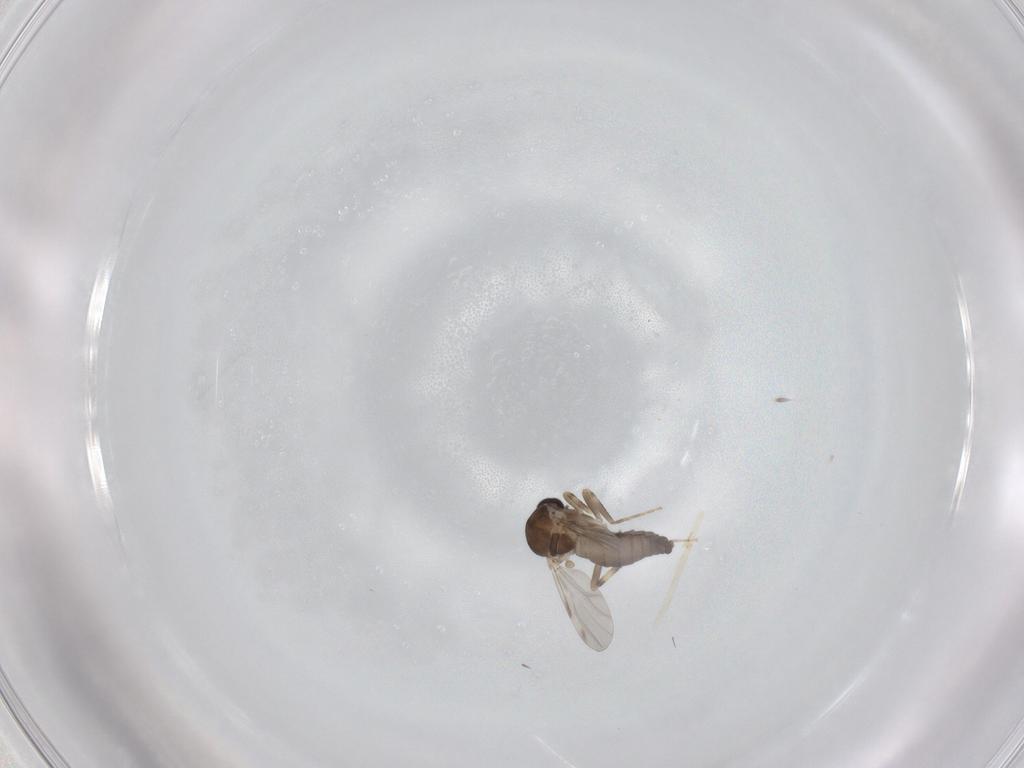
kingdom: Animalia
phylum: Arthropoda
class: Insecta
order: Diptera
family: Ceratopogonidae
